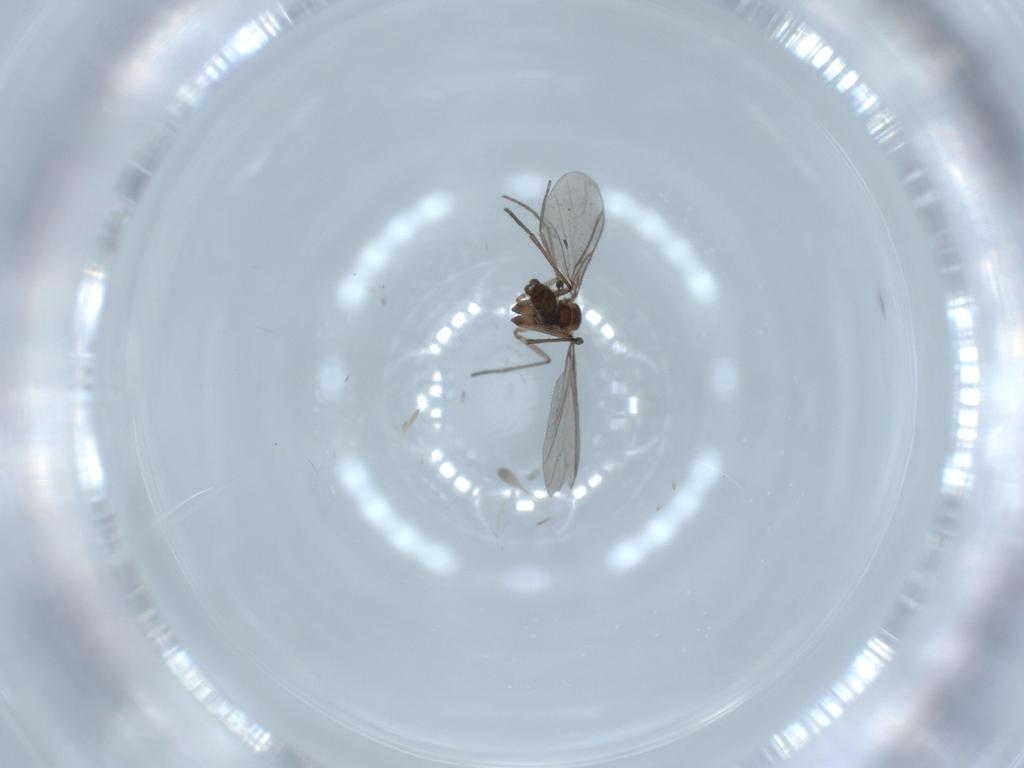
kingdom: Animalia
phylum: Arthropoda
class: Insecta
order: Diptera
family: Chironomidae
